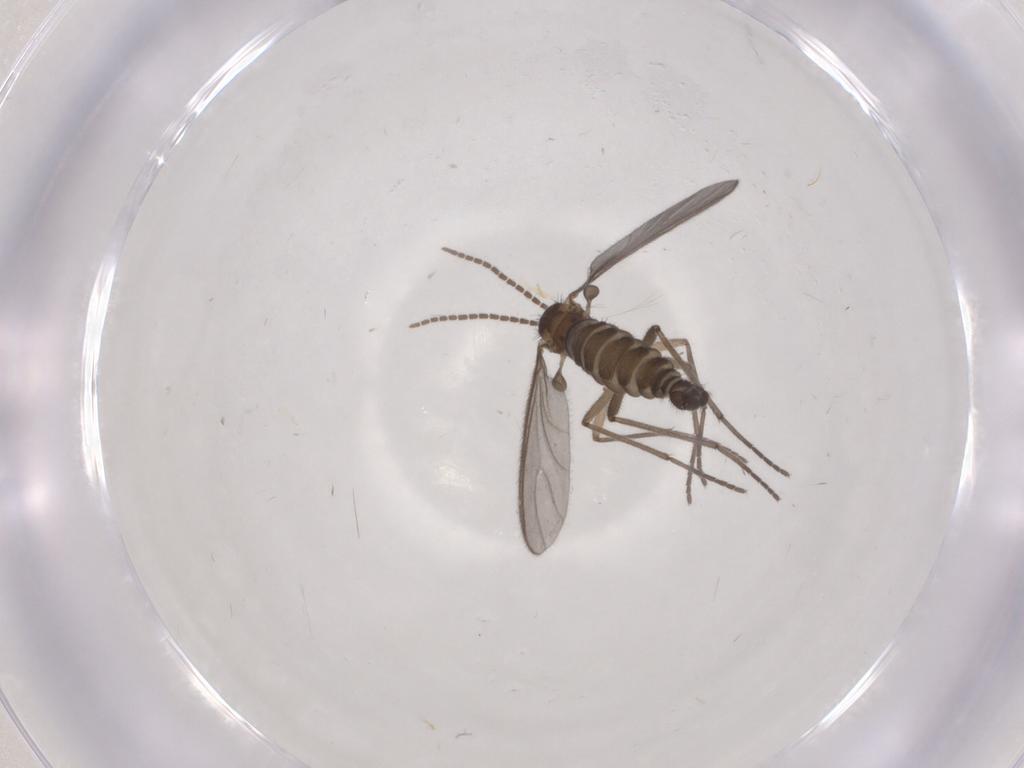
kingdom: Animalia
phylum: Arthropoda
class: Insecta
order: Diptera
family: Sciaridae
